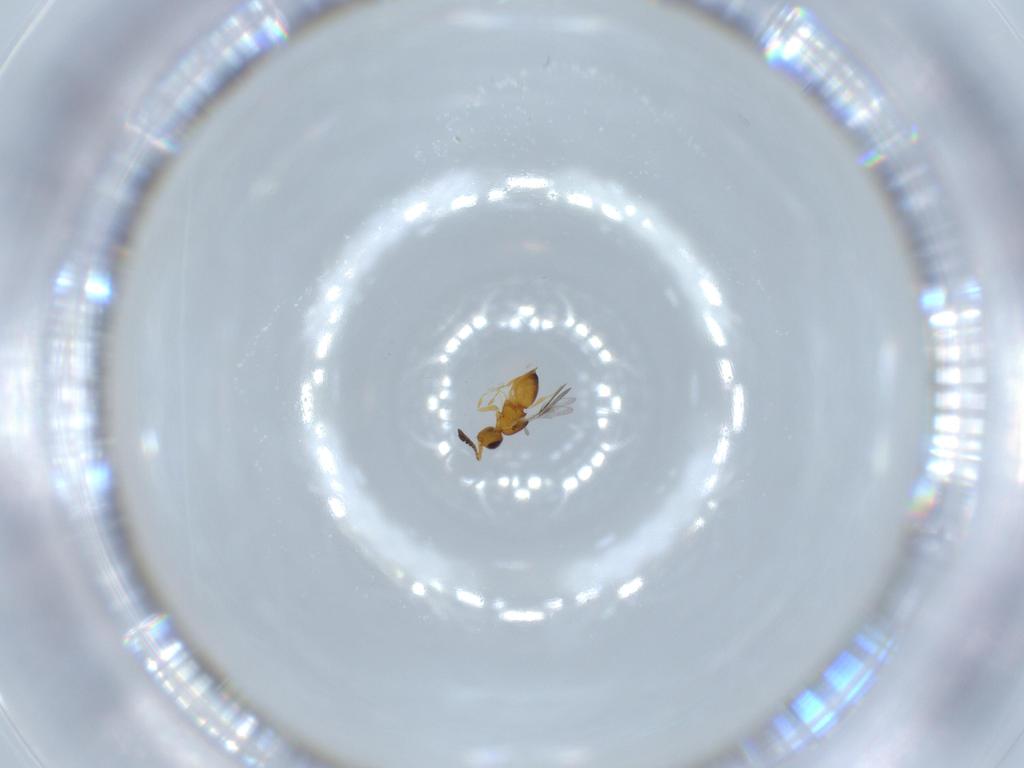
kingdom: Animalia
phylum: Arthropoda
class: Insecta
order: Hymenoptera
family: Ceraphronidae
